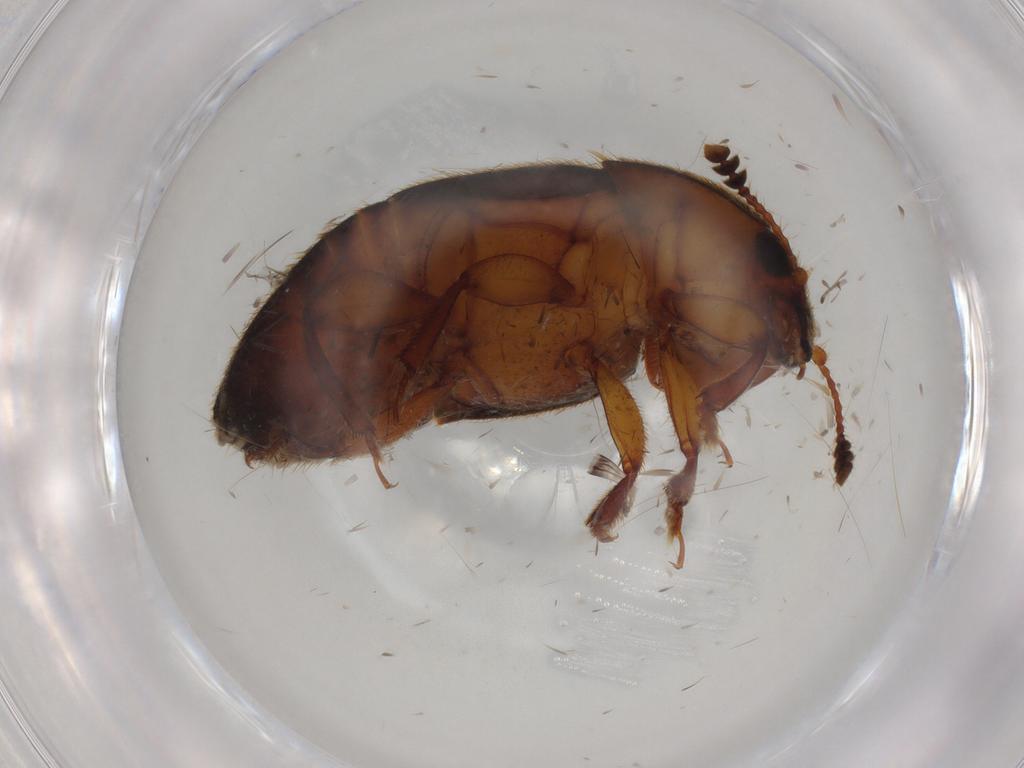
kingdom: Animalia
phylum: Arthropoda
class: Insecta
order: Coleoptera
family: Nitidulidae
